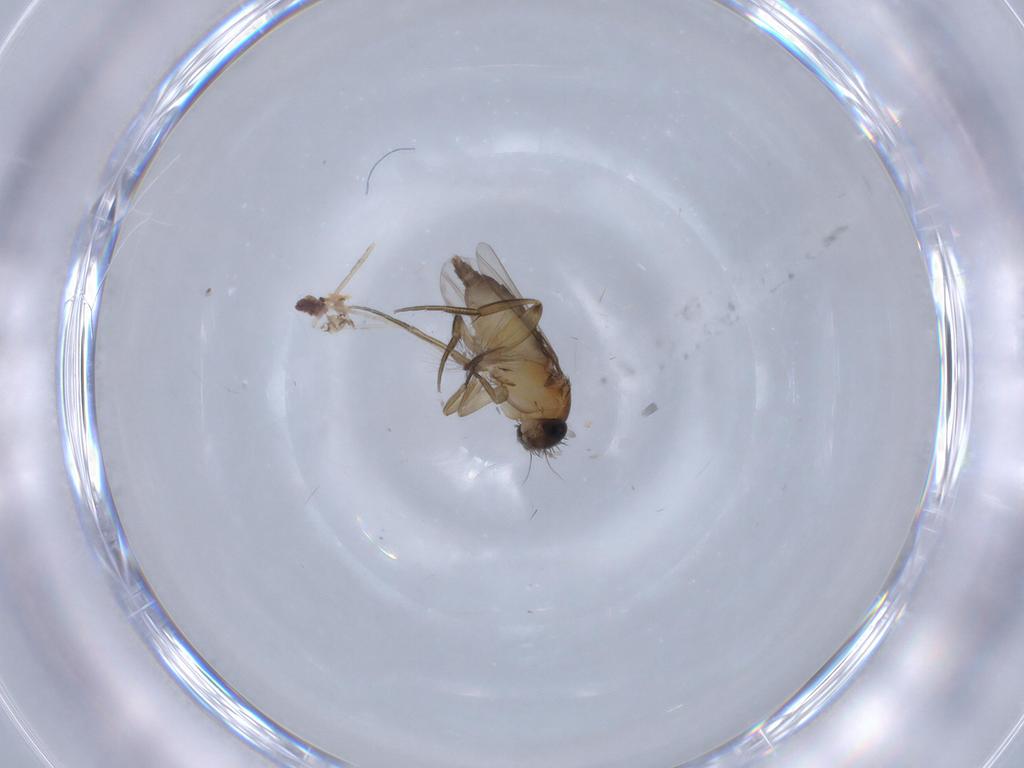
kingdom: Animalia
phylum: Arthropoda
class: Insecta
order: Diptera
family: Phoridae
